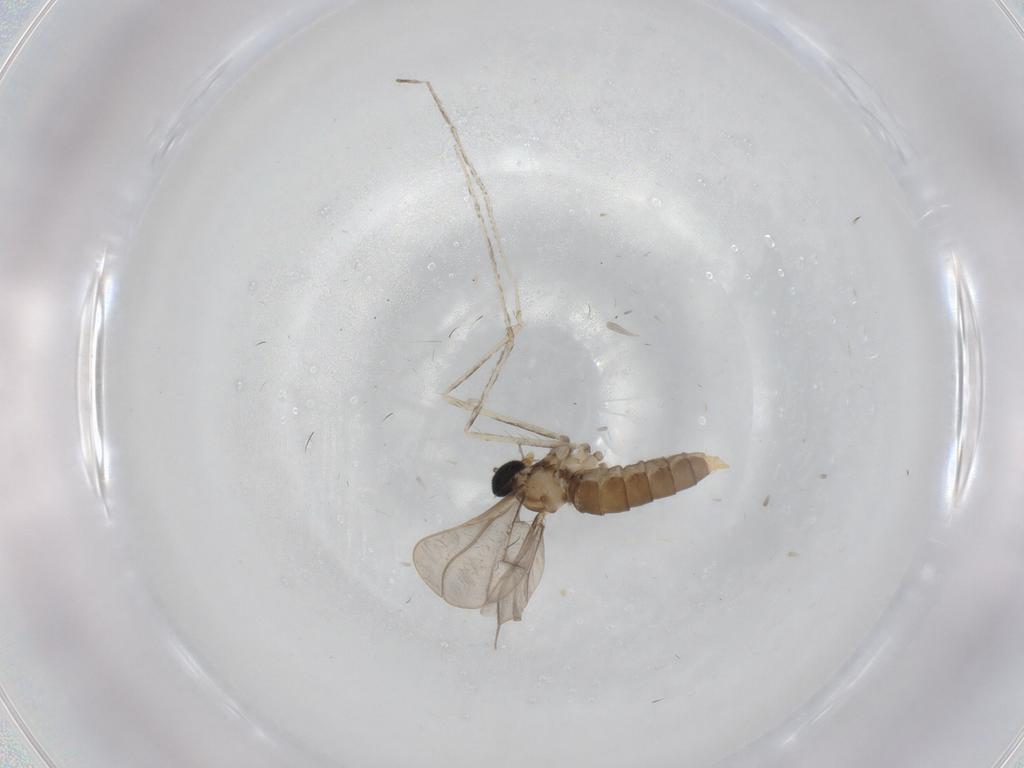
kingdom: Animalia
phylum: Arthropoda
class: Insecta
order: Diptera
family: Cecidomyiidae
